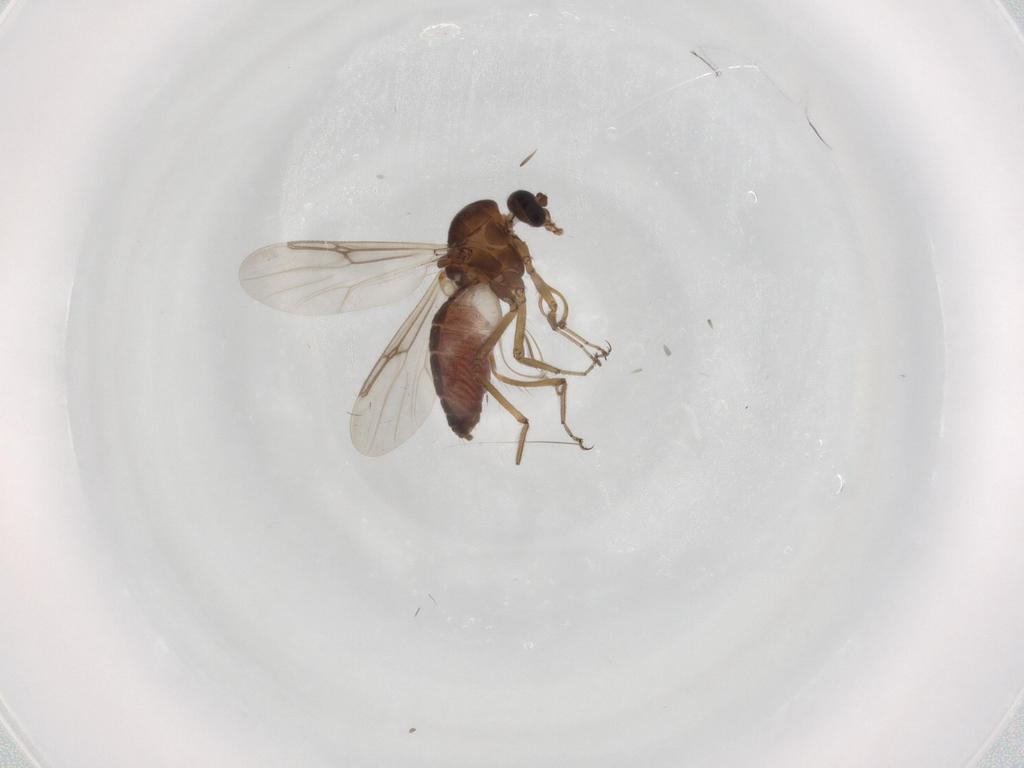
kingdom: Animalia
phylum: Arthropoda
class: Insecta
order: Diptera
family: Ceratopogonidae
